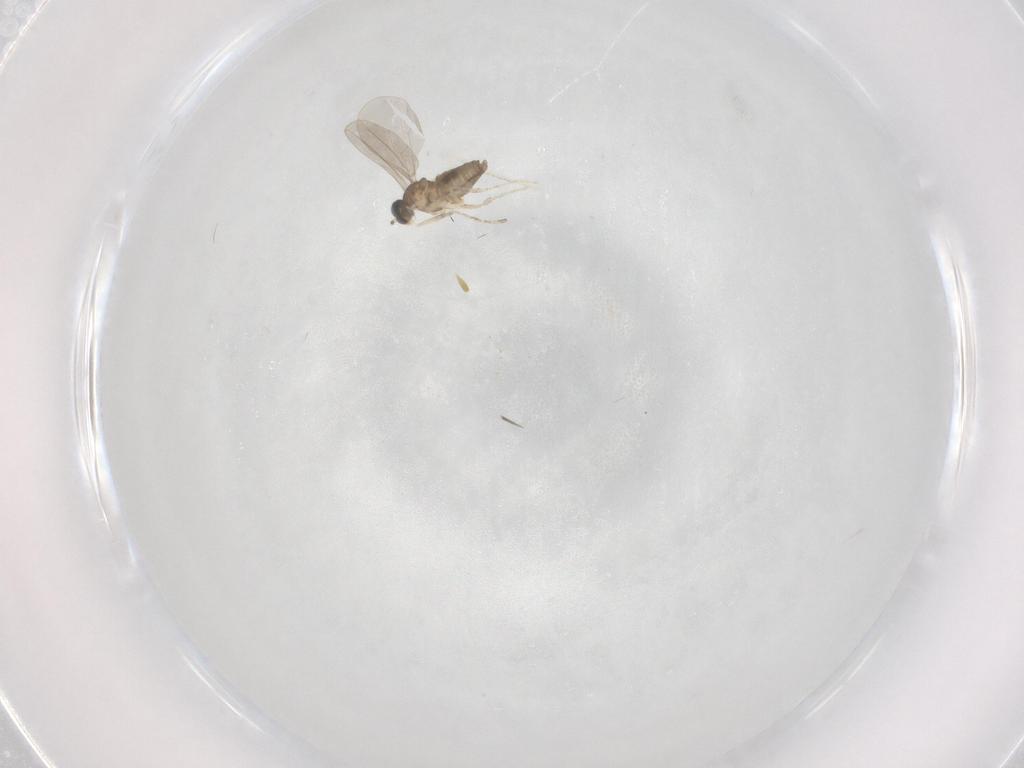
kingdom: Animalia
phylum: Arthropoda
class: Insecta
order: Diptera
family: Cecidomyiidae
